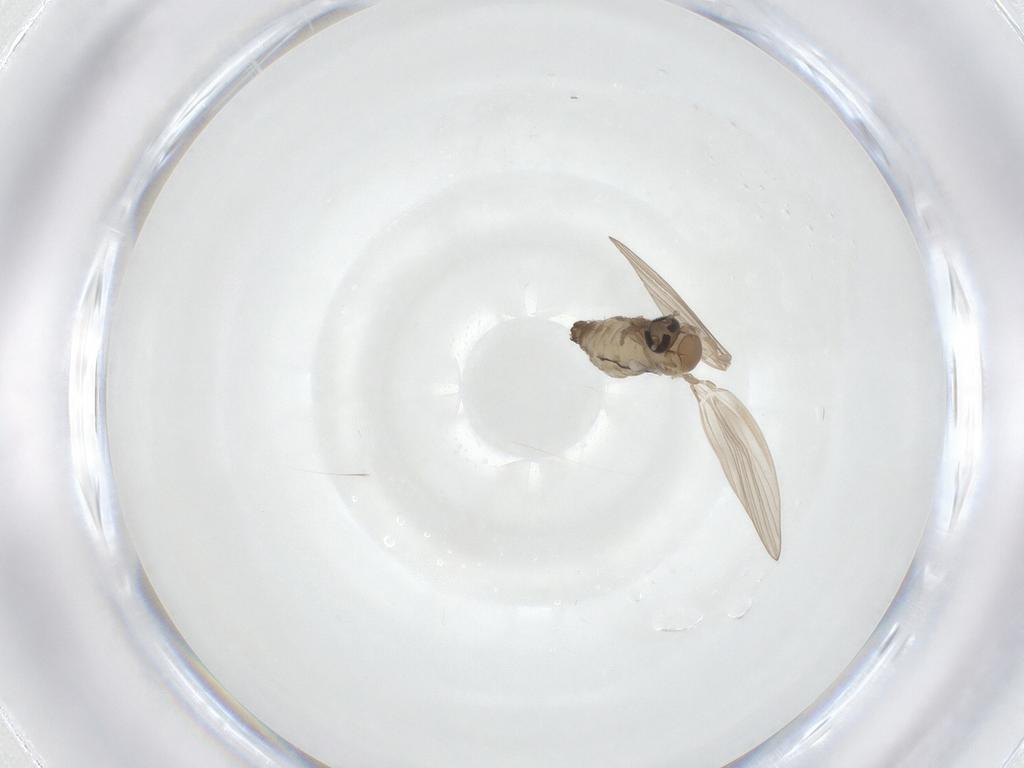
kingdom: Animalia
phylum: Arthropoda
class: Insecta
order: Diptera
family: Psychodidae
